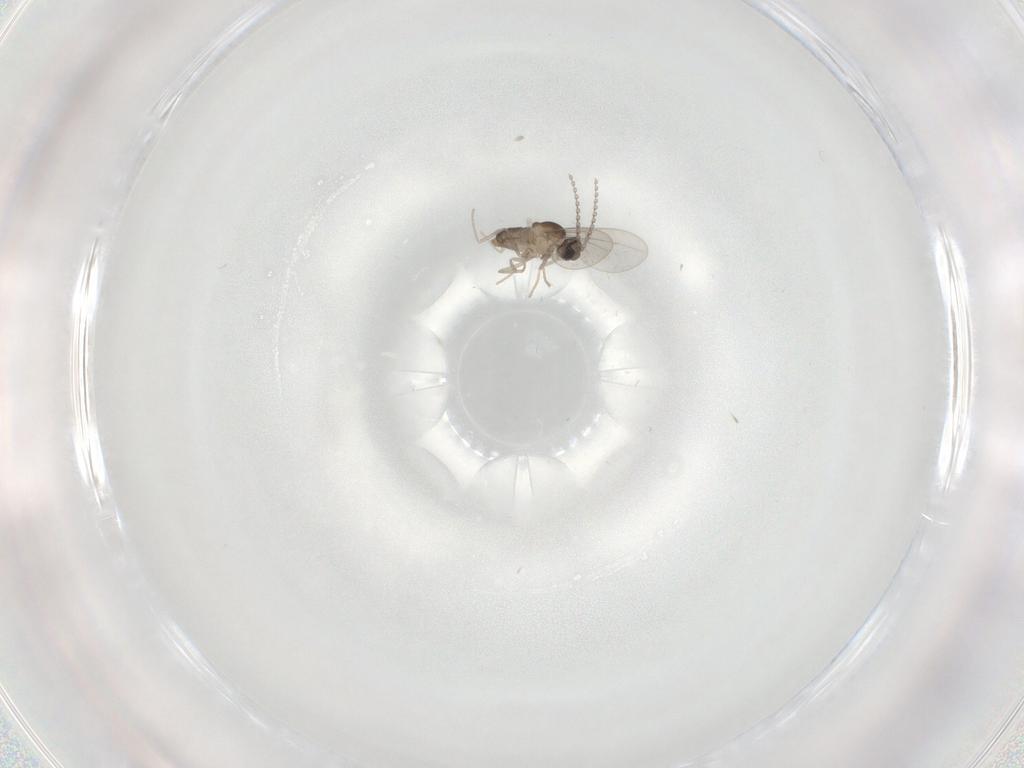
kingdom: Animalia
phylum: Arthropoda
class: Insecta
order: Diptera
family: Cecidomyiidae
